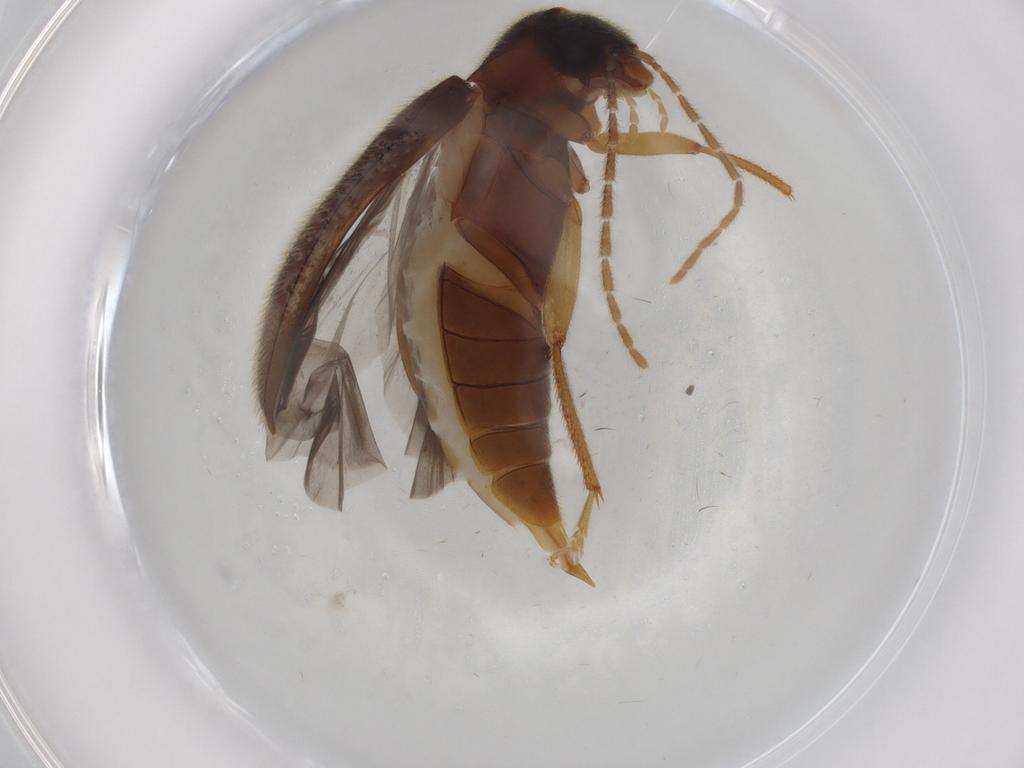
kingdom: Animalia
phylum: Arthropoda
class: Insecta
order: Coleoptera
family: Ptilodactylidae
